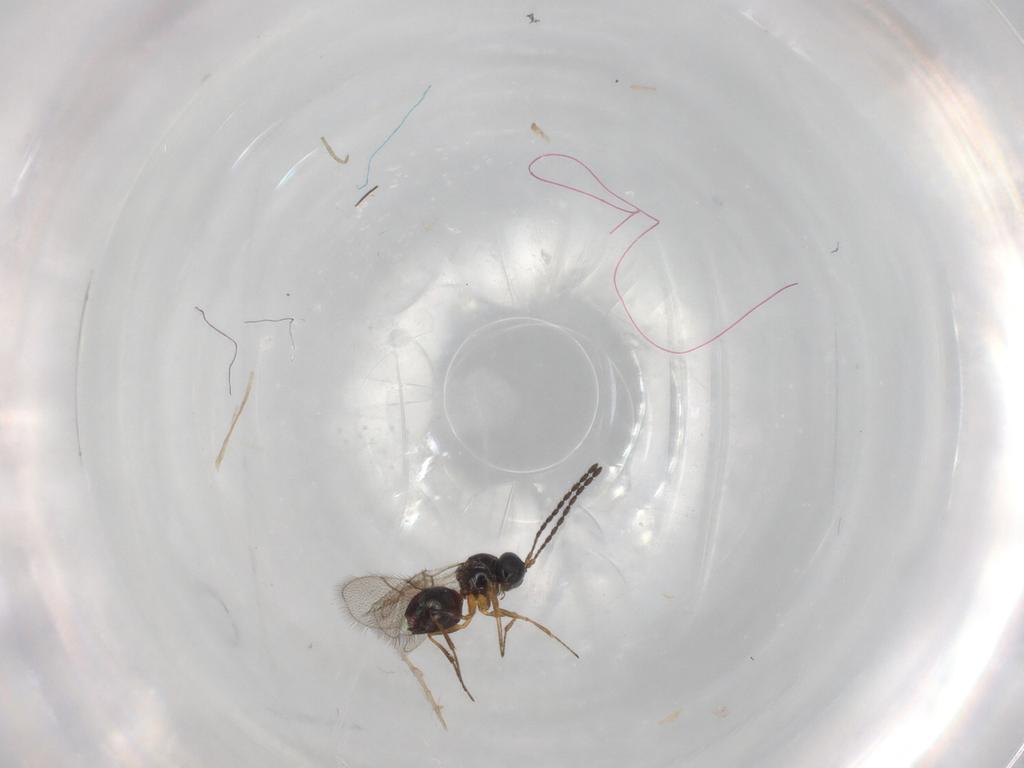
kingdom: Animalia
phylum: Arthropoda
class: Insecta
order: Hymenoptera
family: Figitidae
